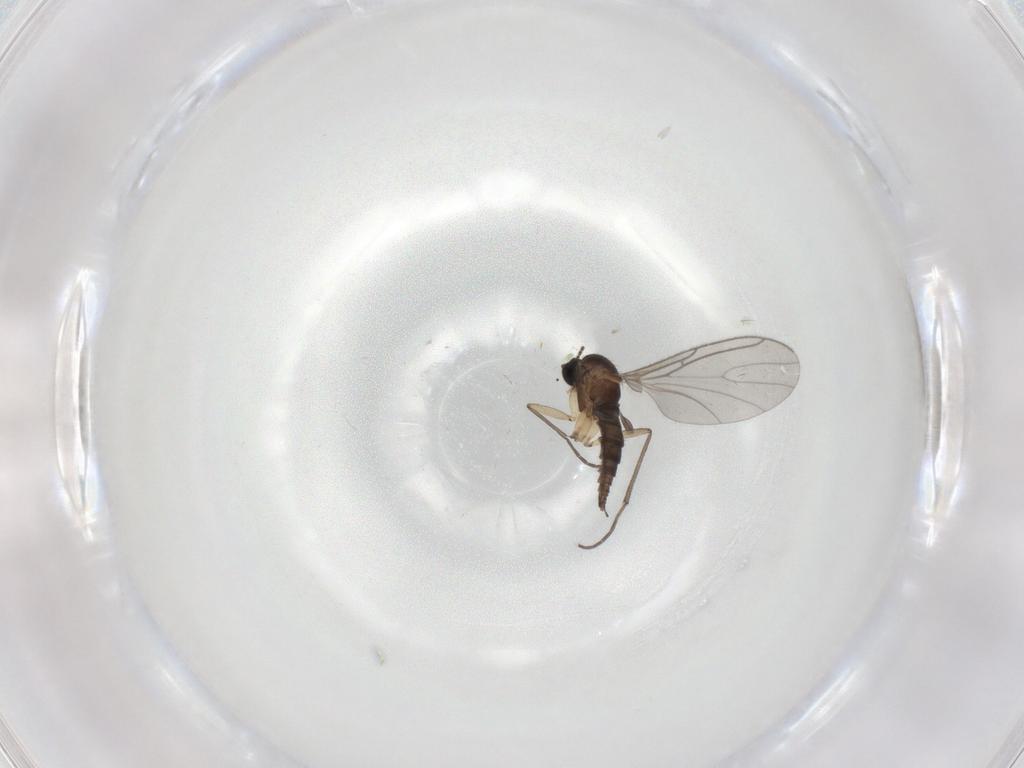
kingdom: Animalia
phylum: Arthropoda
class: Insecta
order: Diptera
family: Sciaridae
